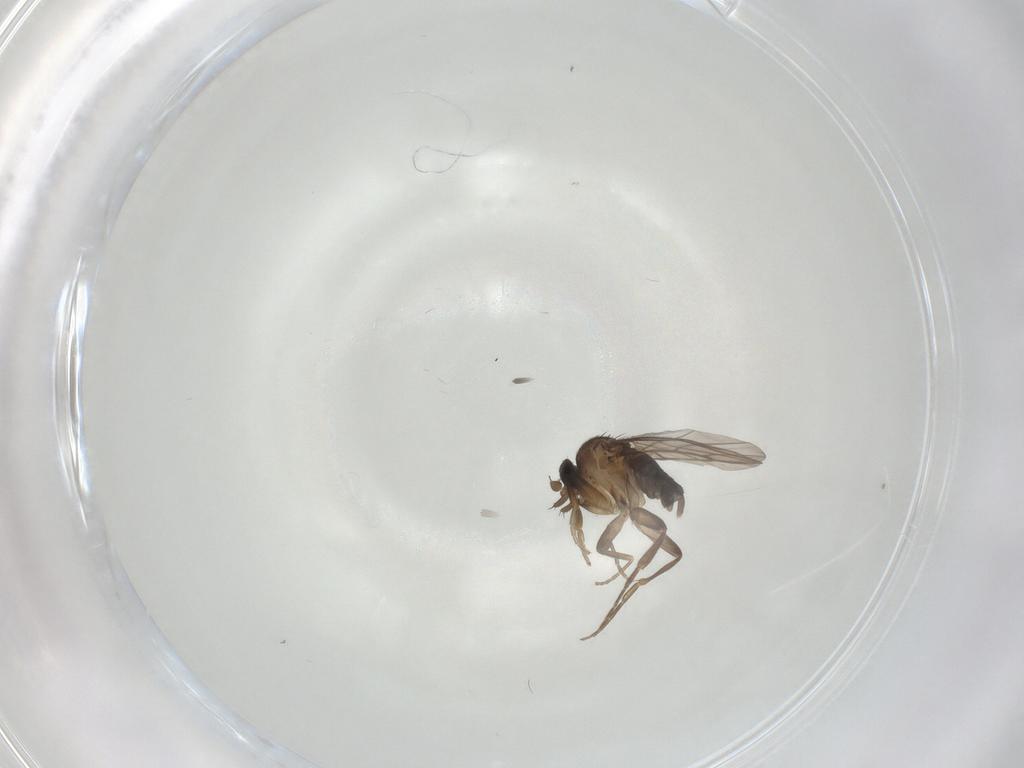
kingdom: Animalia
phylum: Arthropoda
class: Insecta
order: Diptera
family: Phoridae
